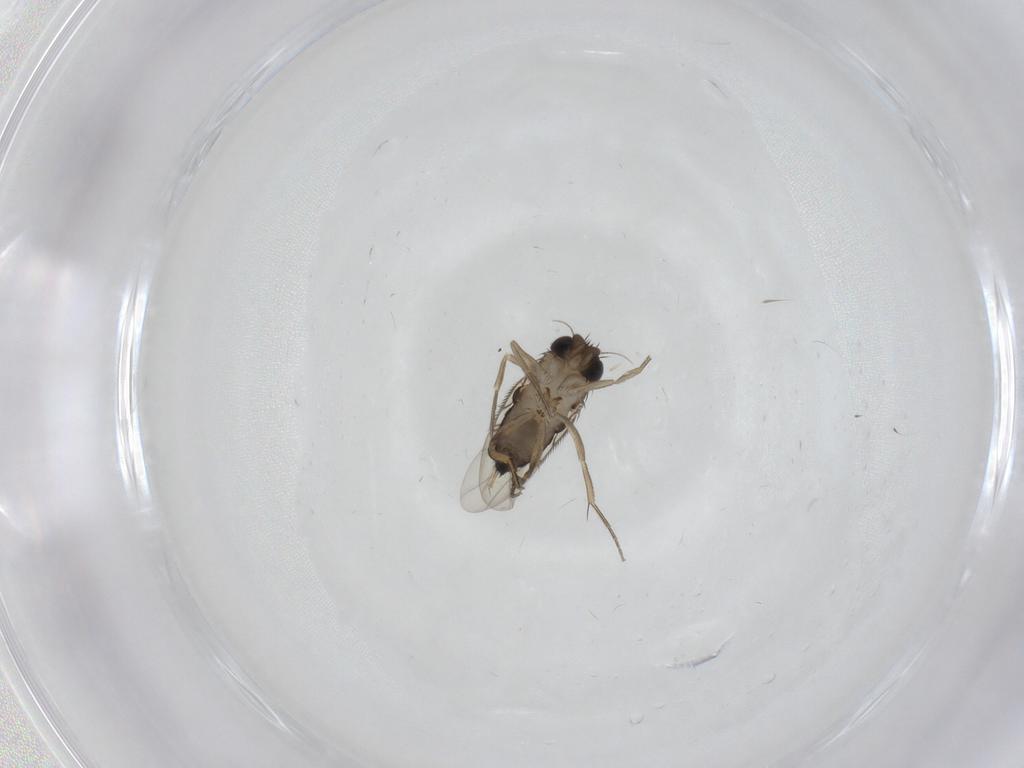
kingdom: Animalia
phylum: Arthropoda
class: Insecta
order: Diptera
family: Phoridae
